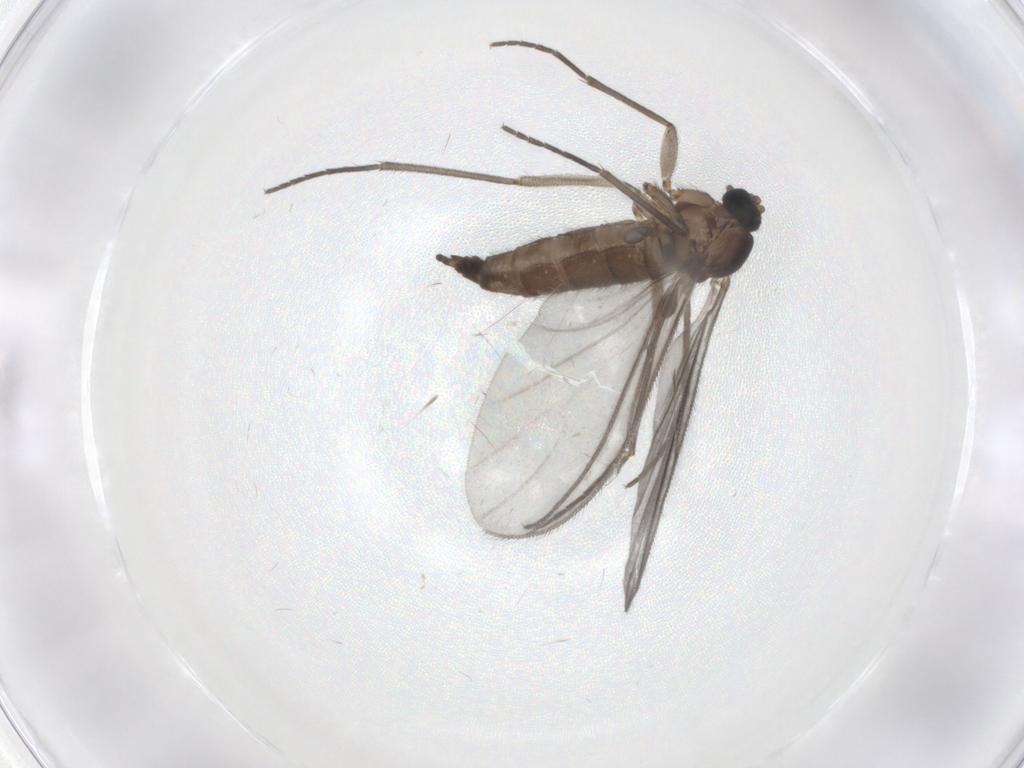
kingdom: Animalia
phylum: Arthropoda
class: Insecta
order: Diptera
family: Sciaridae
